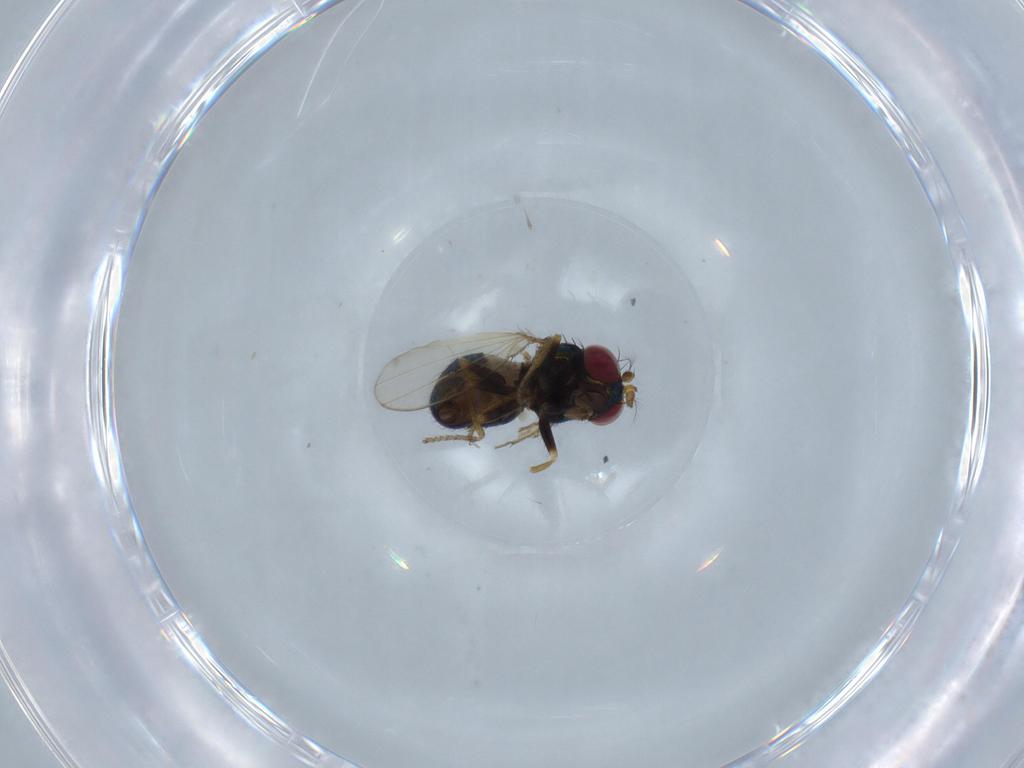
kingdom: Animalia
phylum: Arthropoda
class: Insecta
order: Diptera
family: Ephydridae
